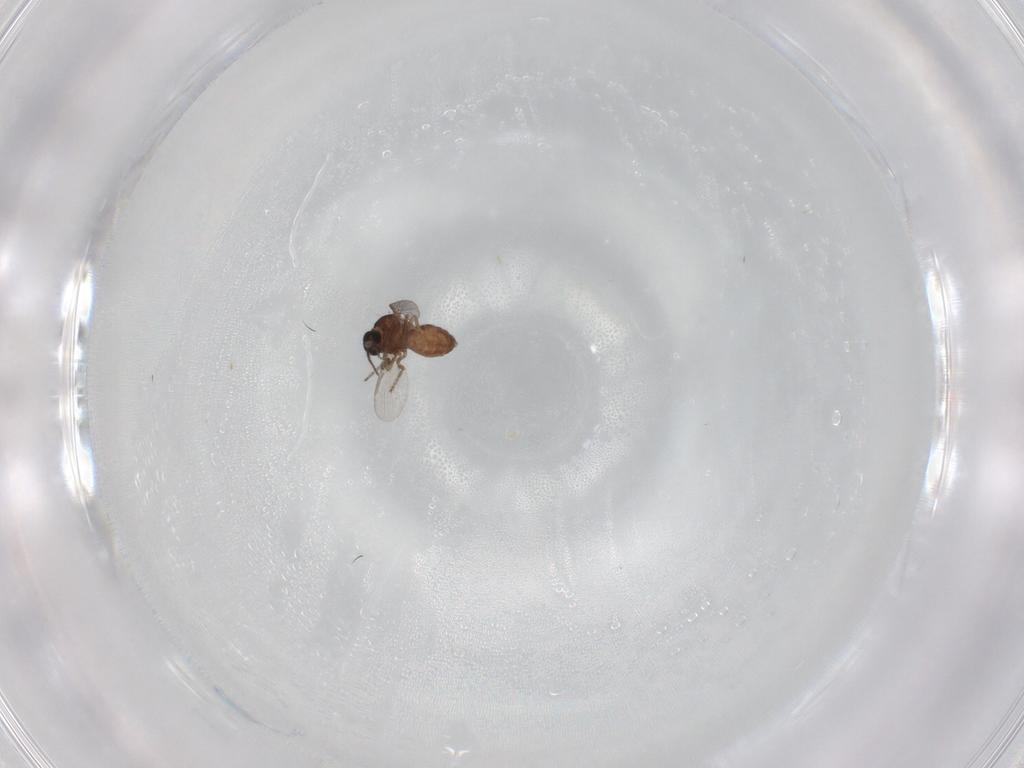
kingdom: Animalia
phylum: Arthropoda
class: Insecta
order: Diptera
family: Ceratopogonidae
